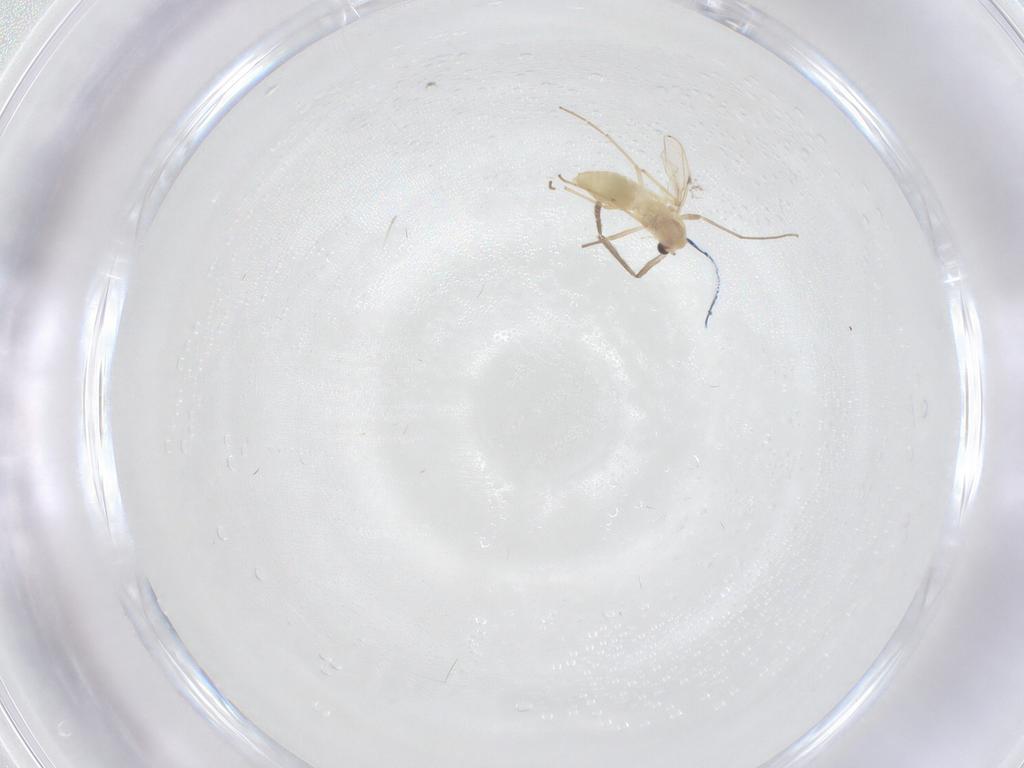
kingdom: Animalia
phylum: Arthropoda
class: Insecta
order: Diptera
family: Chironomidae
